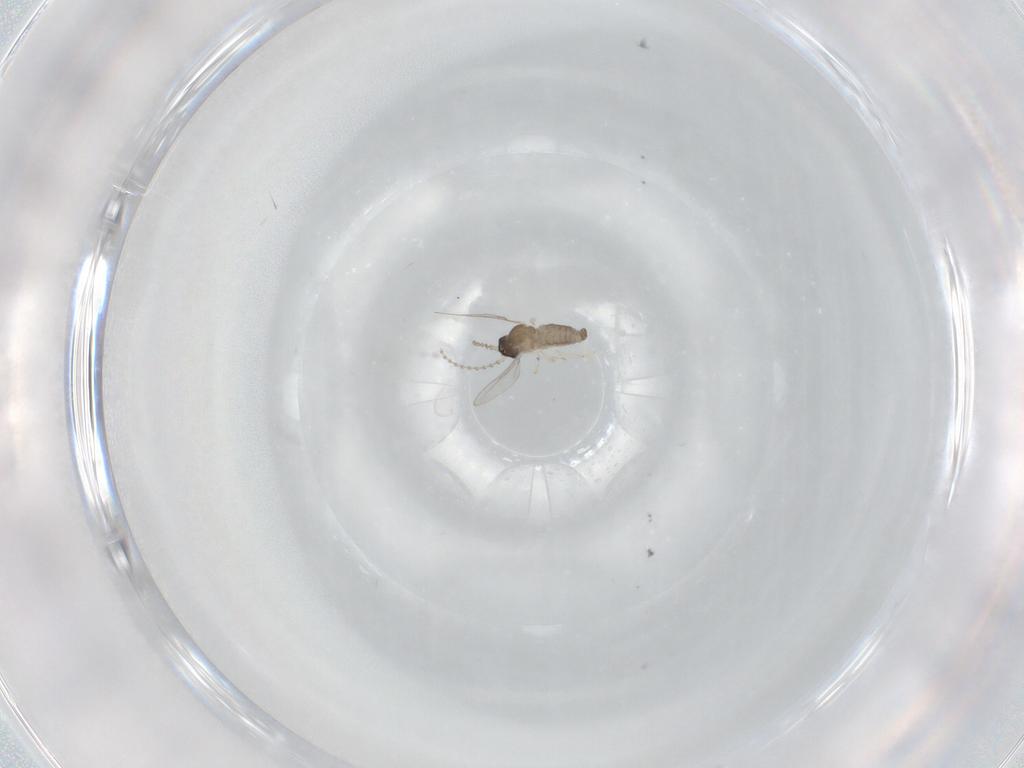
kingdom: Animalia
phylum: Arthropoda
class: Insecta
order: Diptera
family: Cecidomyiidae
